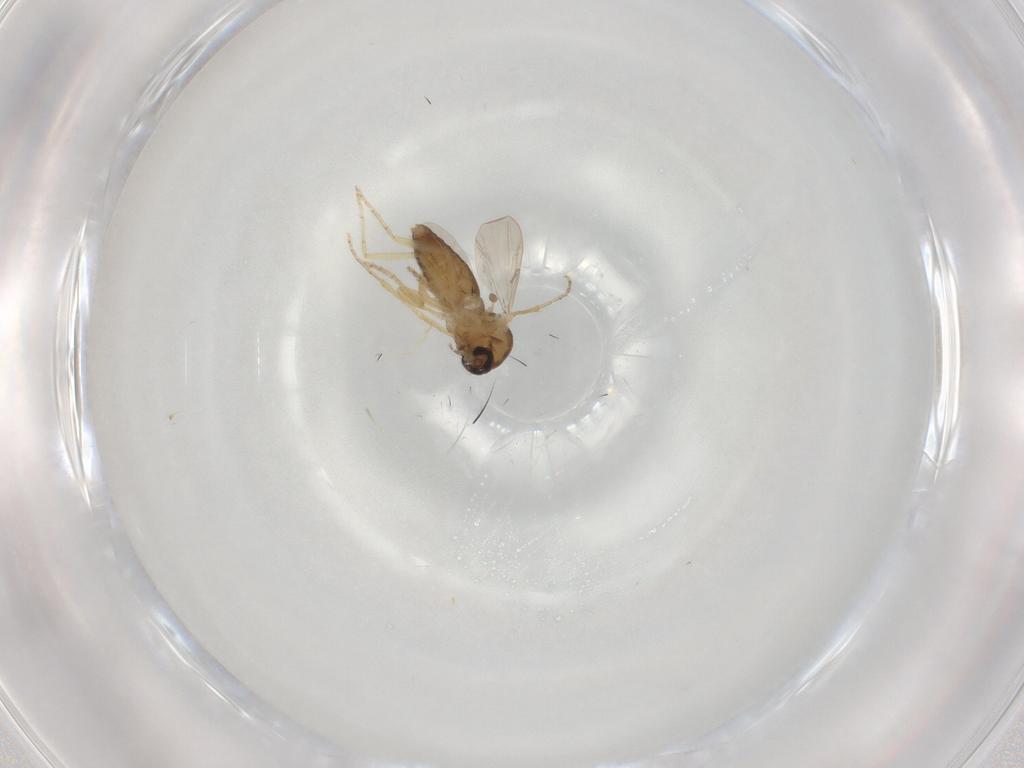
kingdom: Animalia
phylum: Arthropoda
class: Insecta
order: Diptera
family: Ceratopogonidae
